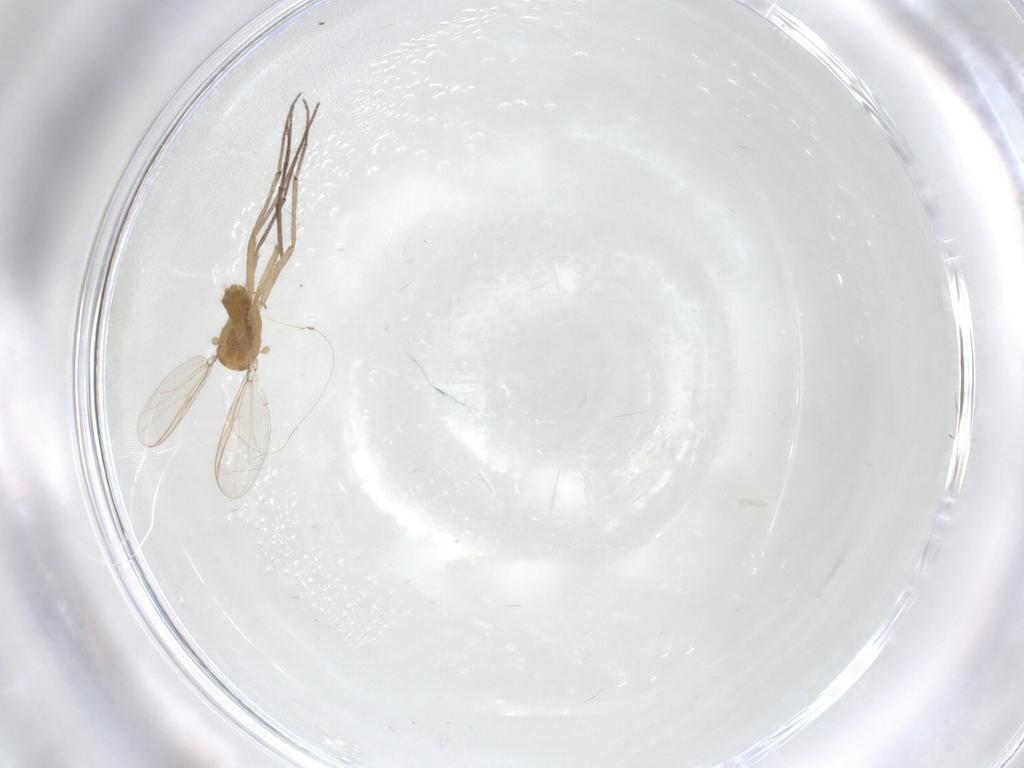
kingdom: Animalia
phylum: Arthropoda
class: Insecta
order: Diptera
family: Chironomidae
